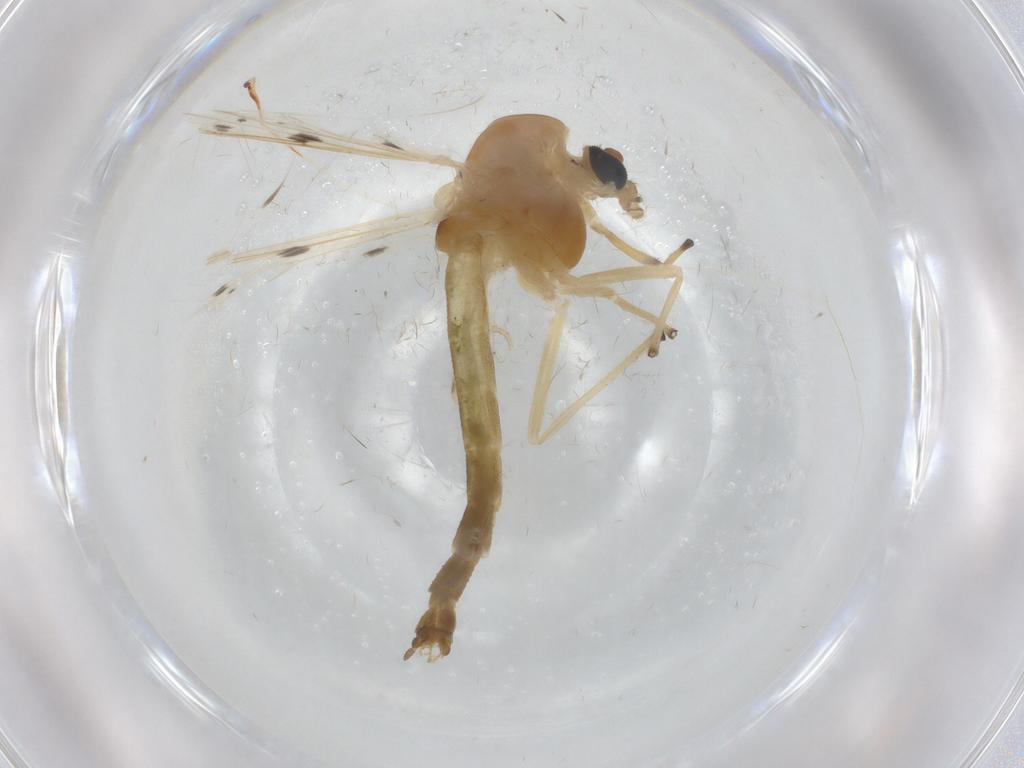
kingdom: Animalia
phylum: Arthropoda
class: Insecta
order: Diptera
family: Chironomidae
